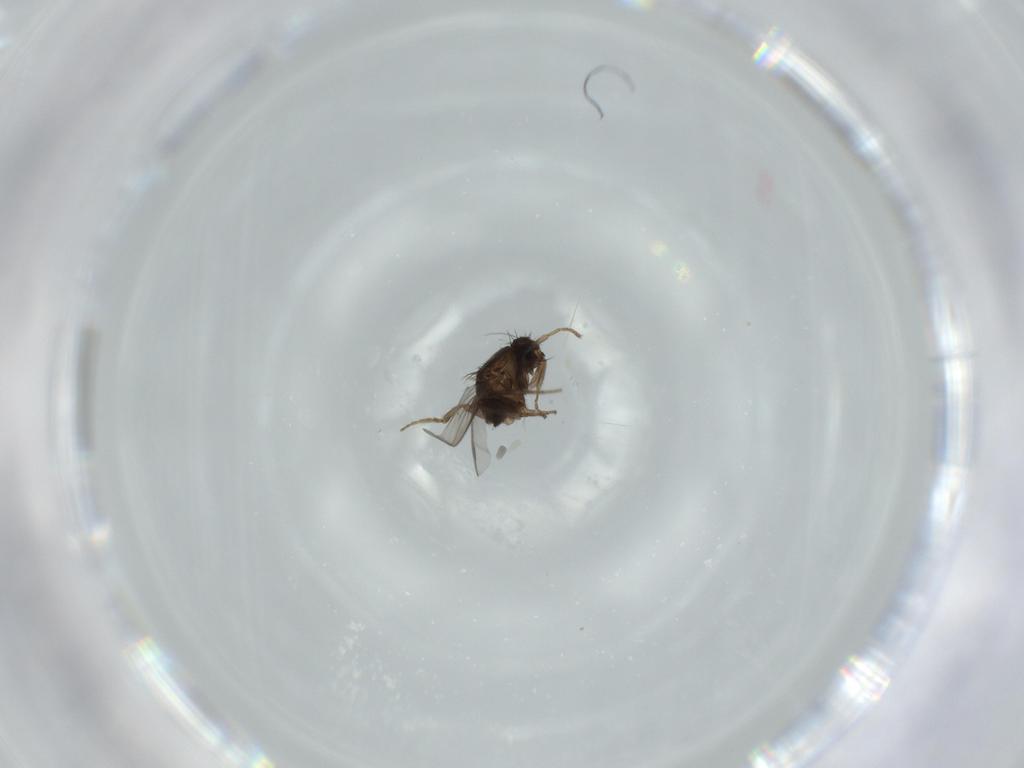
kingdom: Animalia
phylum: Arthropoda
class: Insecta
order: Diptera
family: Sphaeroceridae
